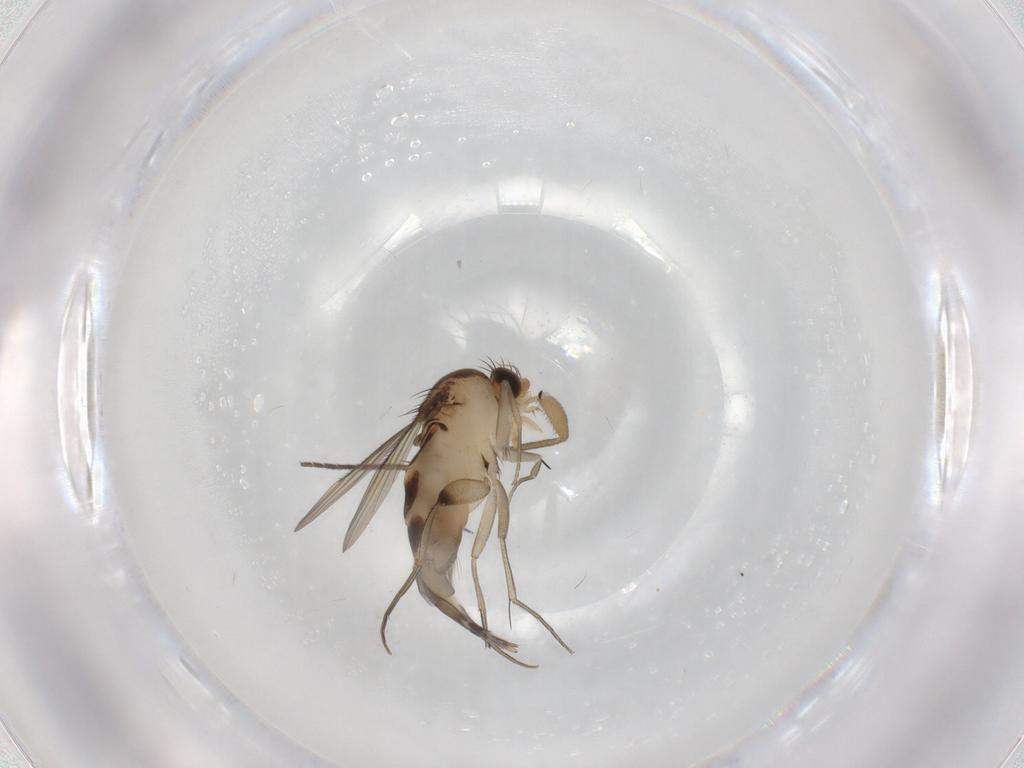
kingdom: Animalia
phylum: Arthropoda
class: Insecta
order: Diptera
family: Phoridae
